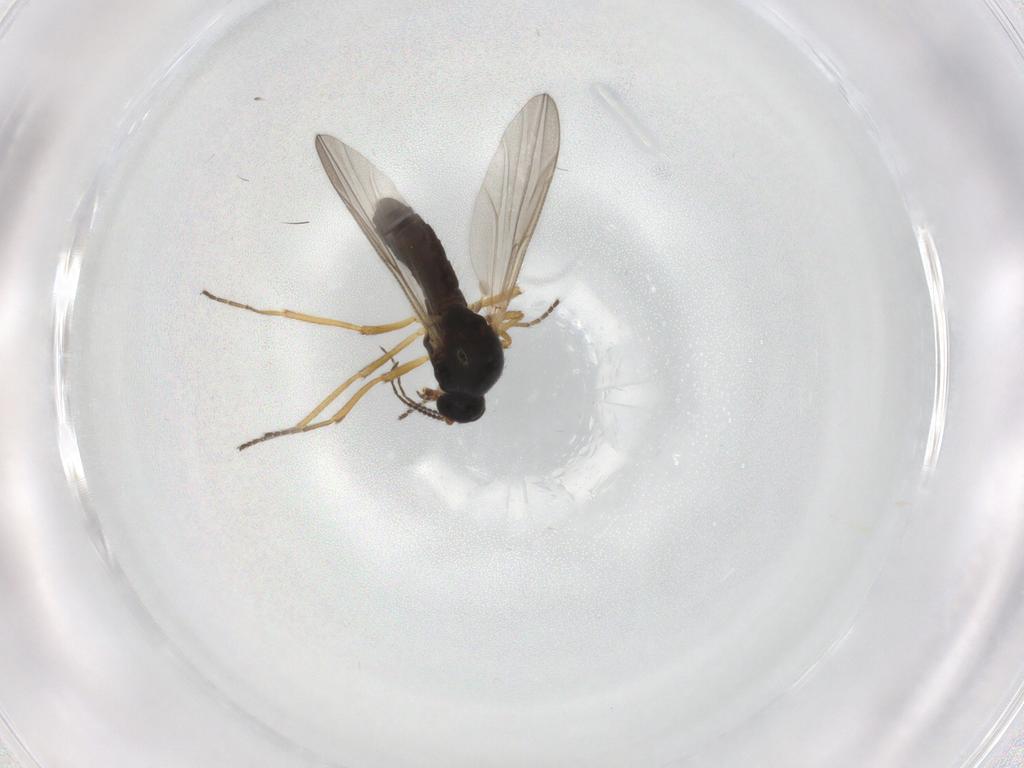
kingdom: Animalia
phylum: Arthropoda
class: Insecta
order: Diptera
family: Ceratopogonidae
